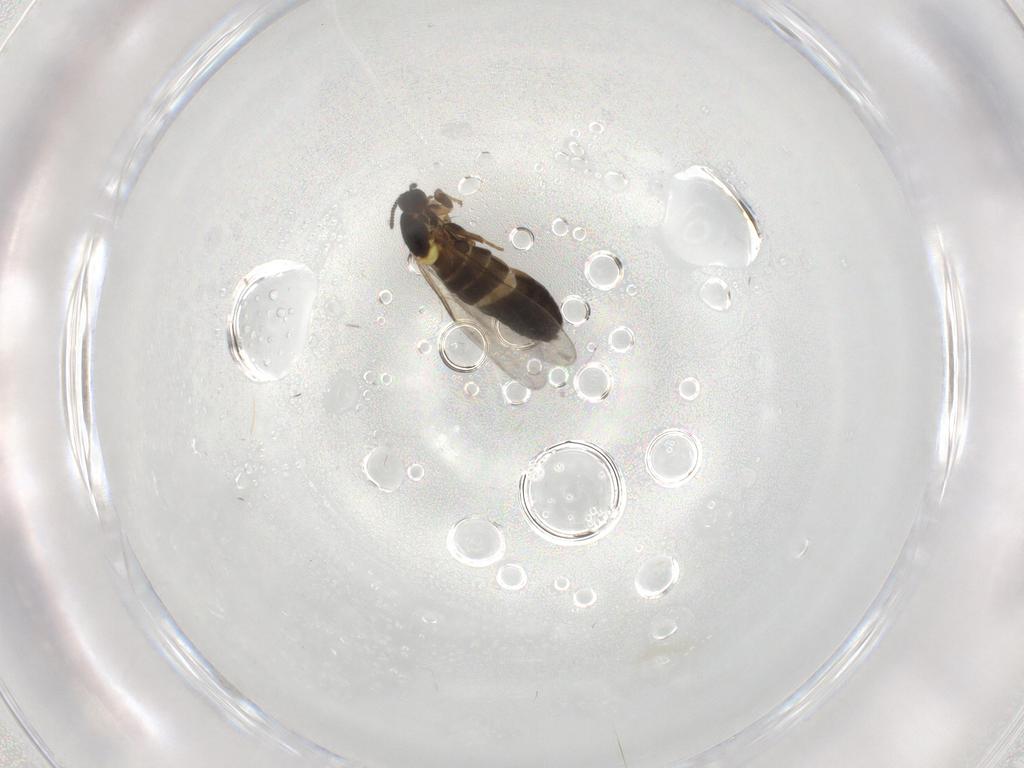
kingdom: Animalia
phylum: Arthropoda
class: Insecta
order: Diptera
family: Scatopsidae
